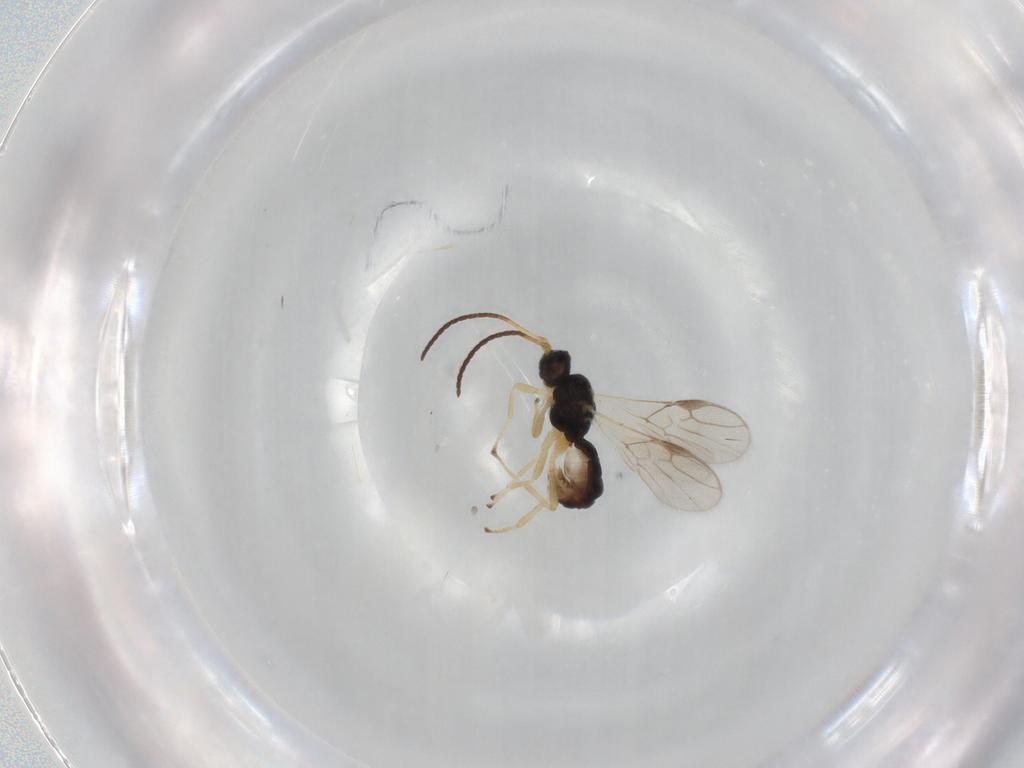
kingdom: Animalia
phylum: Arthropoda
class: Insecta
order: Hymenoptera
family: Braconidae
